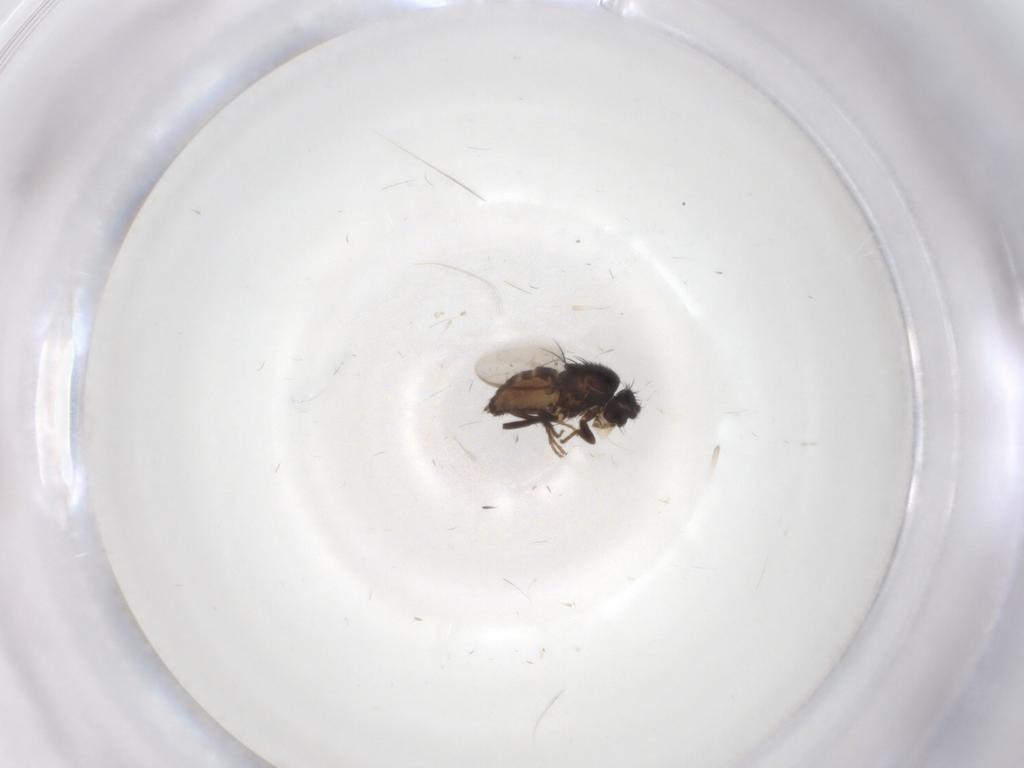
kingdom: Animalia
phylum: Arthropoda
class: Insecta
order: Diptera
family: Sphaeroceridae
